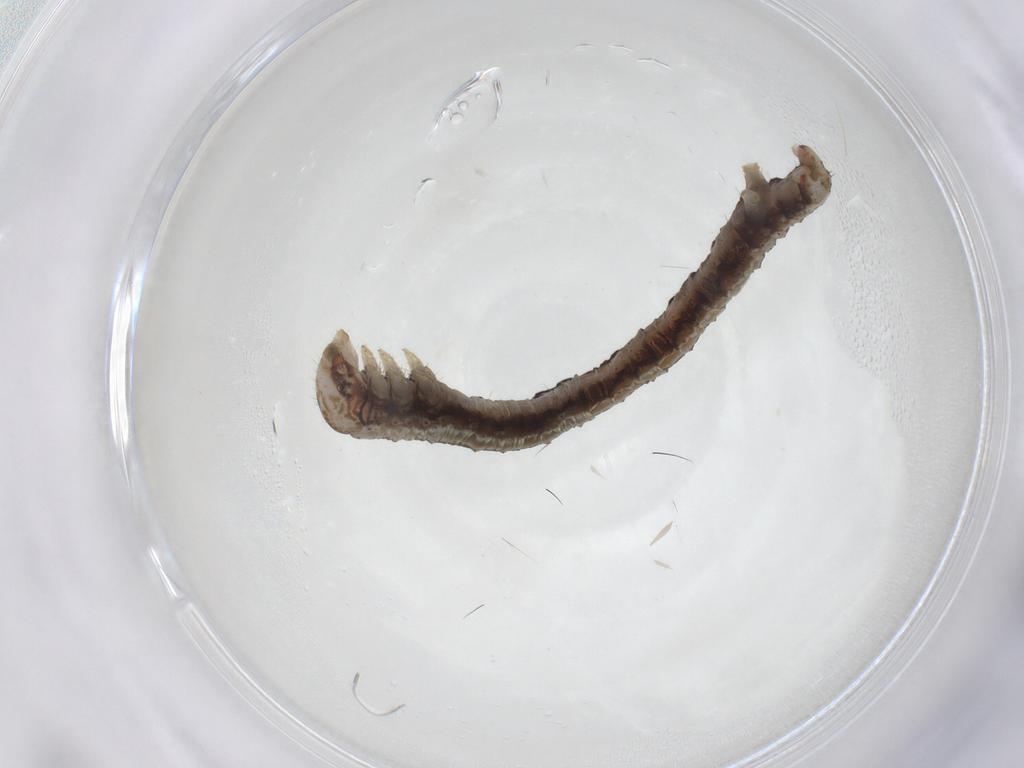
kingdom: Animalia
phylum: Arthropoda
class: Insecta
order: Lepidoptera
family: Geometridae
